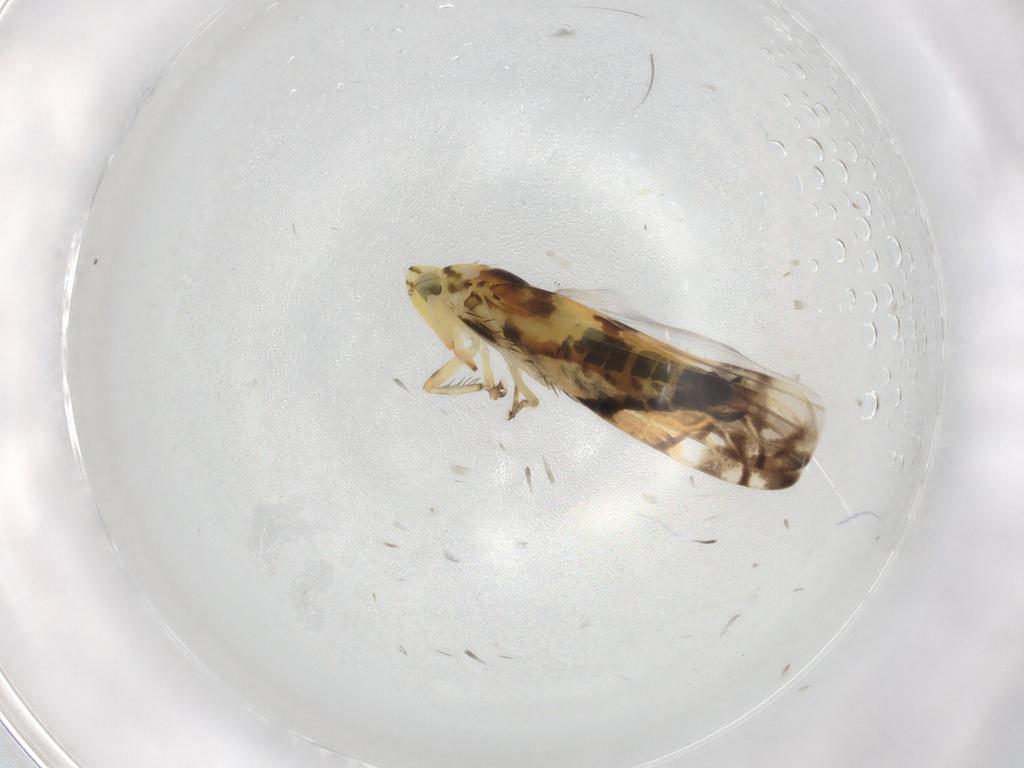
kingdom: Animalia
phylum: Arthropoda
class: Insecta
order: Hemiptera
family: Cicadellidae
